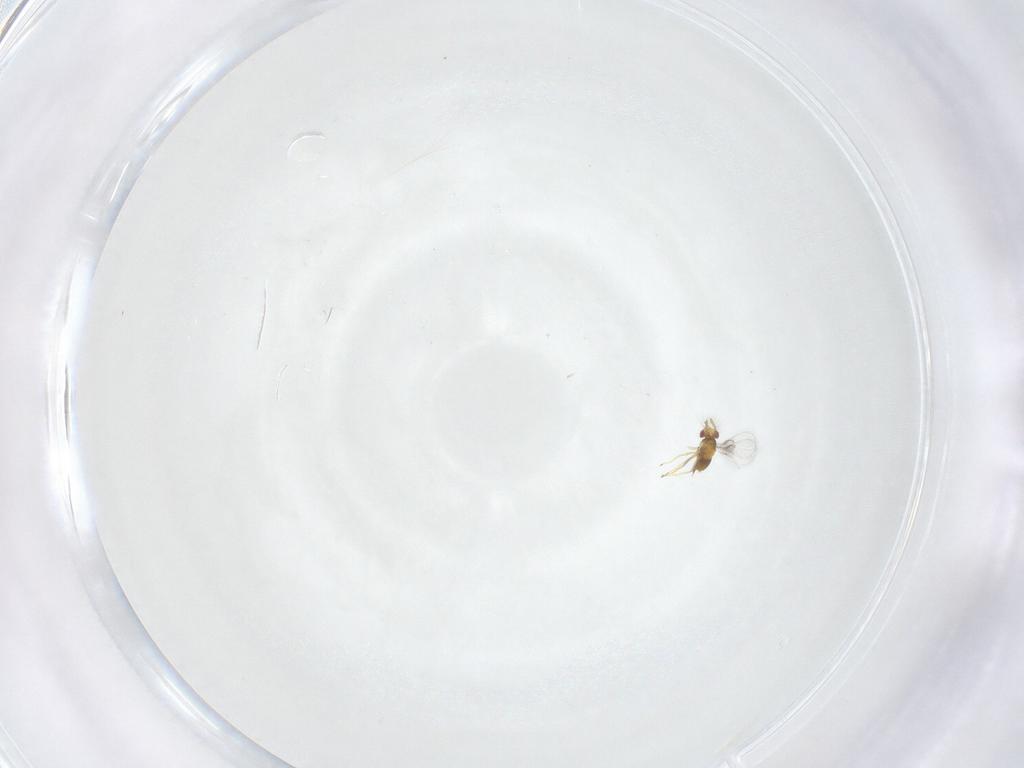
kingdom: Animalia
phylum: Arthropoda
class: Insecta
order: Hymenoptera
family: Trichogrammatidae
